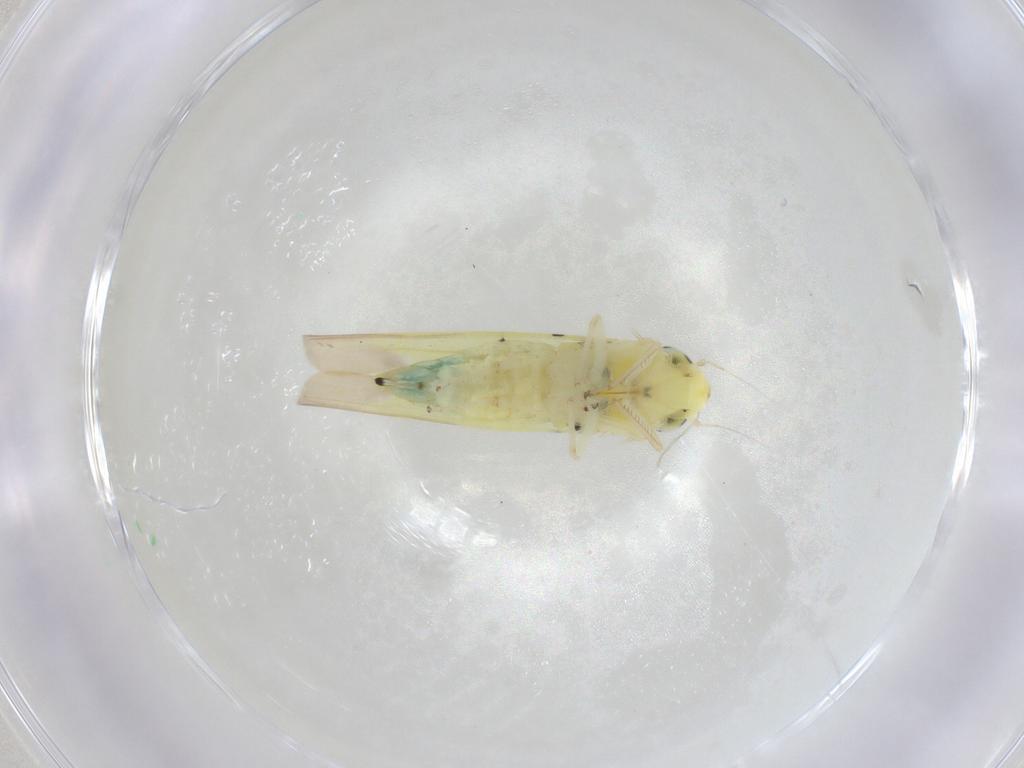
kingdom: Animalia
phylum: Arthropoda
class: Insecta
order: Hemiptera
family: Cicadellidae
